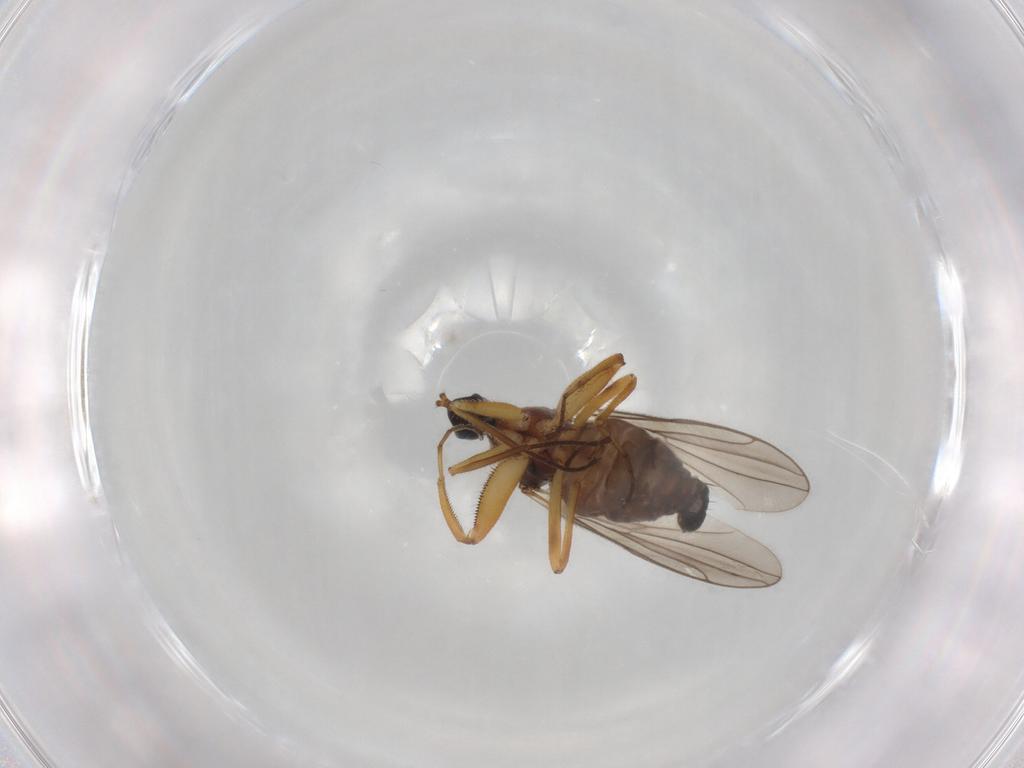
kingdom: Animalia
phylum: Arthropoda
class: Insecta
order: Diptera
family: Hybotidae
